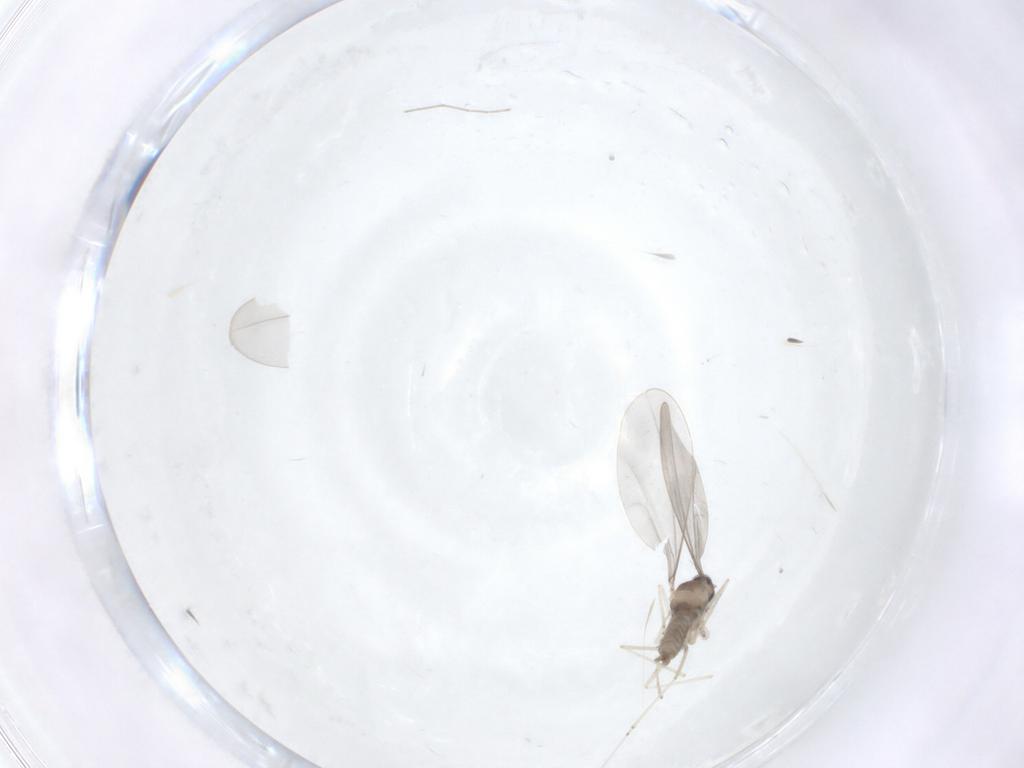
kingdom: Animalia
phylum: Arthropoda
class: Insecta
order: Diptera
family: Cecidomyiidae
